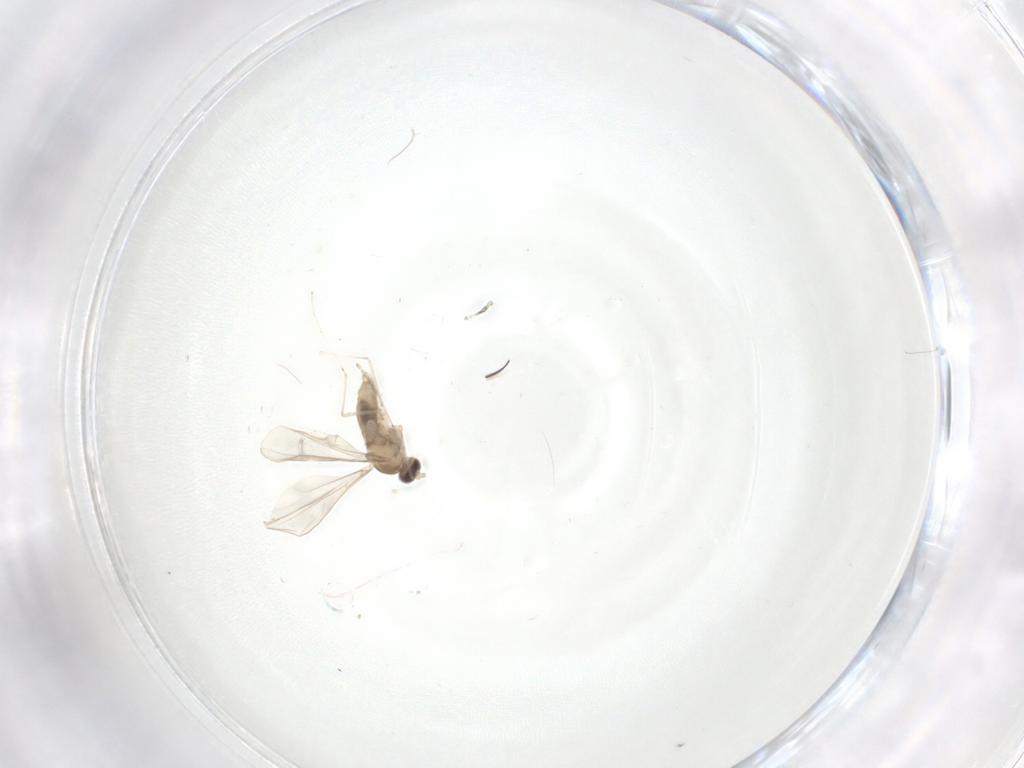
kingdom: Animalia
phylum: Arthropoda
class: Insecta
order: Diptera
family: Cecidomyiidae
